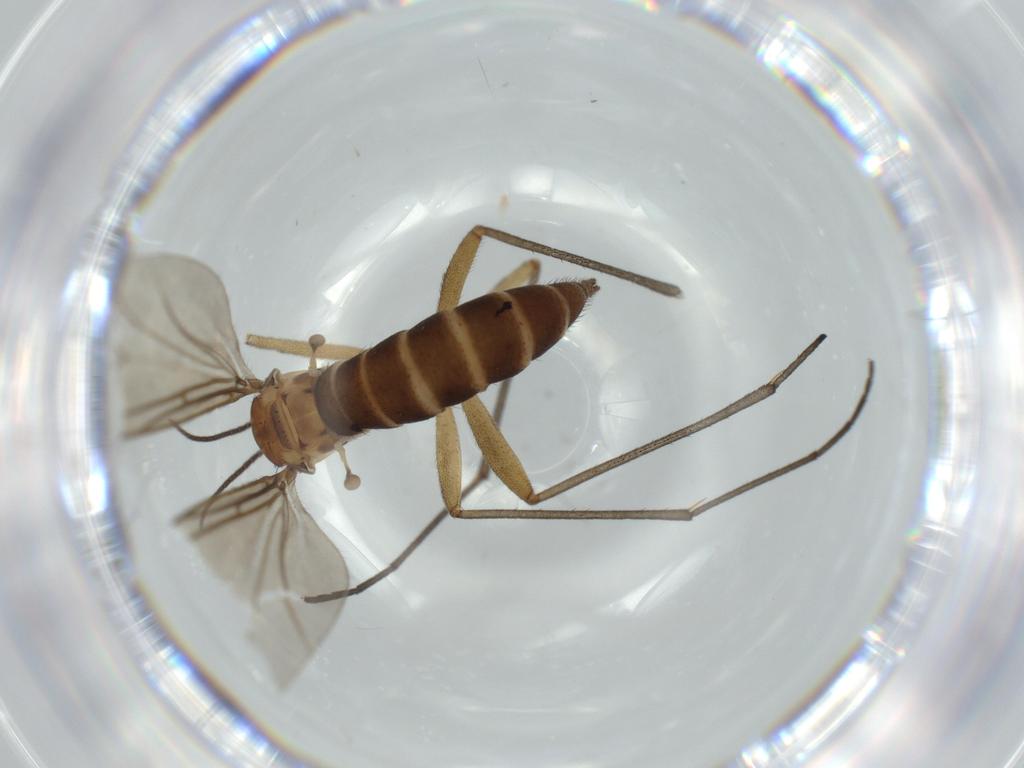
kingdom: Animalia
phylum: Arthropoda
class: Insecta
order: Diptera
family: Sciaridae
